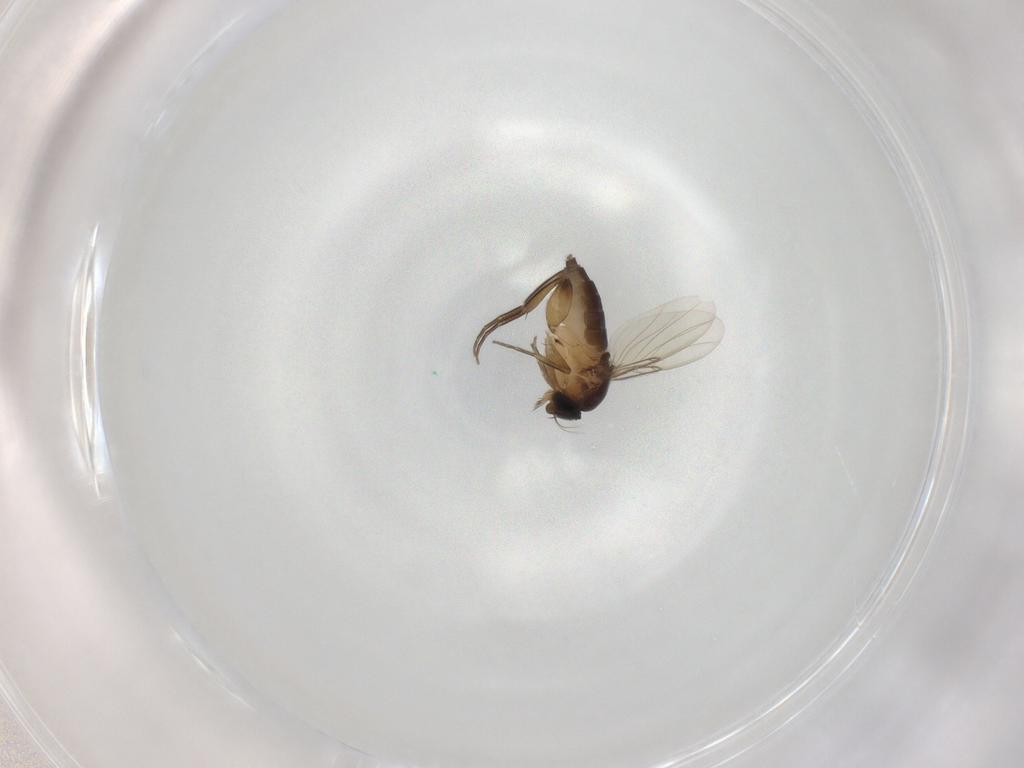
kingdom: Animalia
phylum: Arthropoda
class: Insecta
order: Diptera
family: Phoridae
